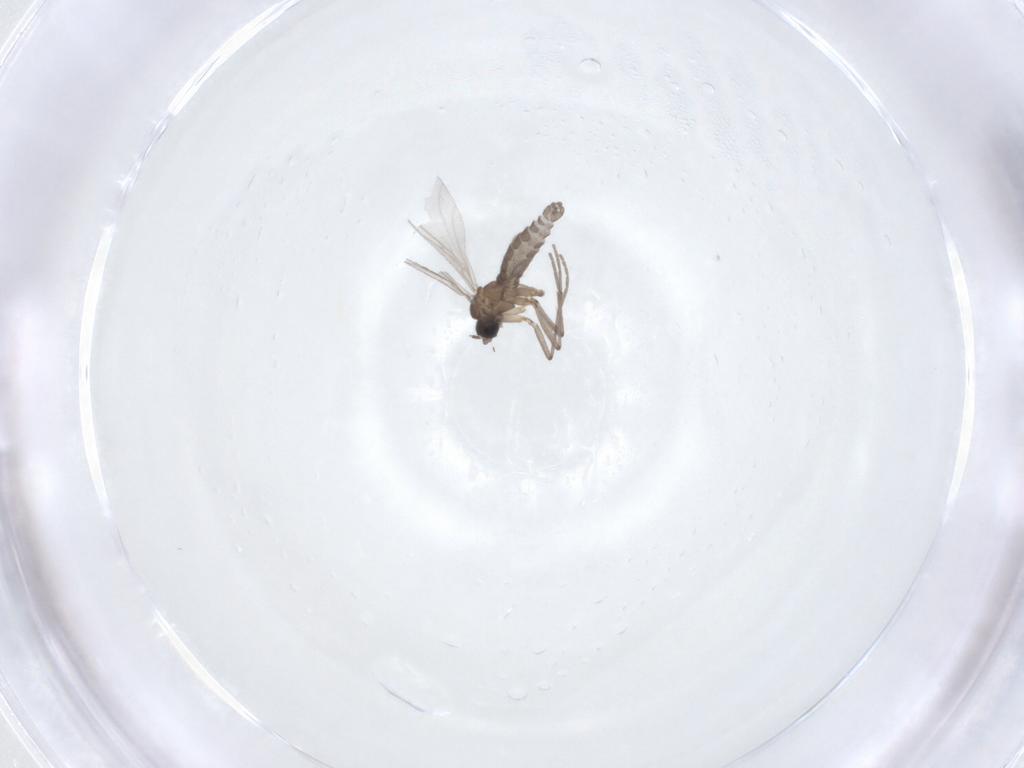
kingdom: Animalia
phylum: Arthropoda
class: Insecta
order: Diptera
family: Sciaridae
